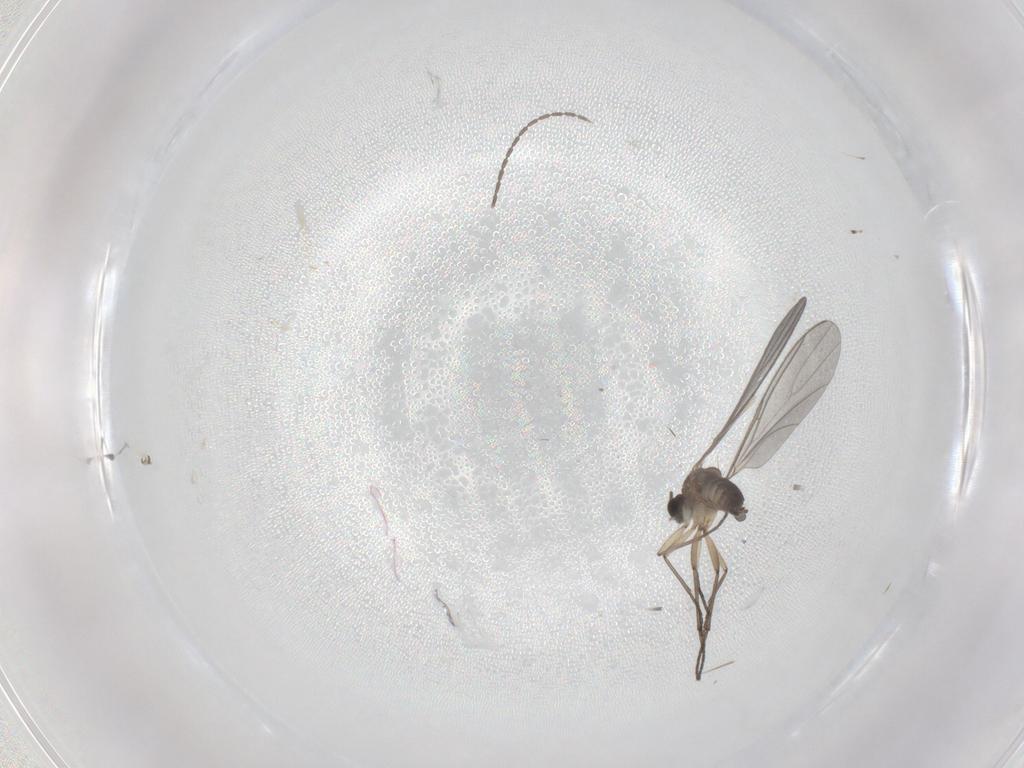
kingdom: Animalia
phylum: Arthropoda
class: Insecta
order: Diptera
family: Sciaridae
